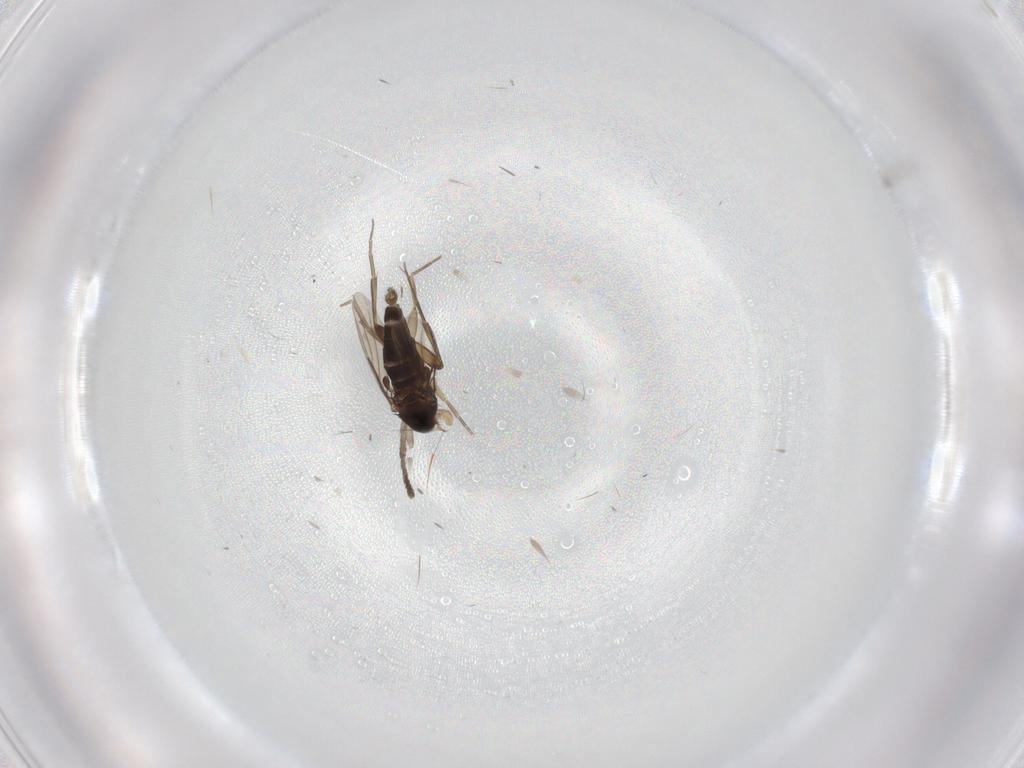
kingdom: Animalia
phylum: Arthropoda
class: Insecta
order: Diptera
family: Phoridae
